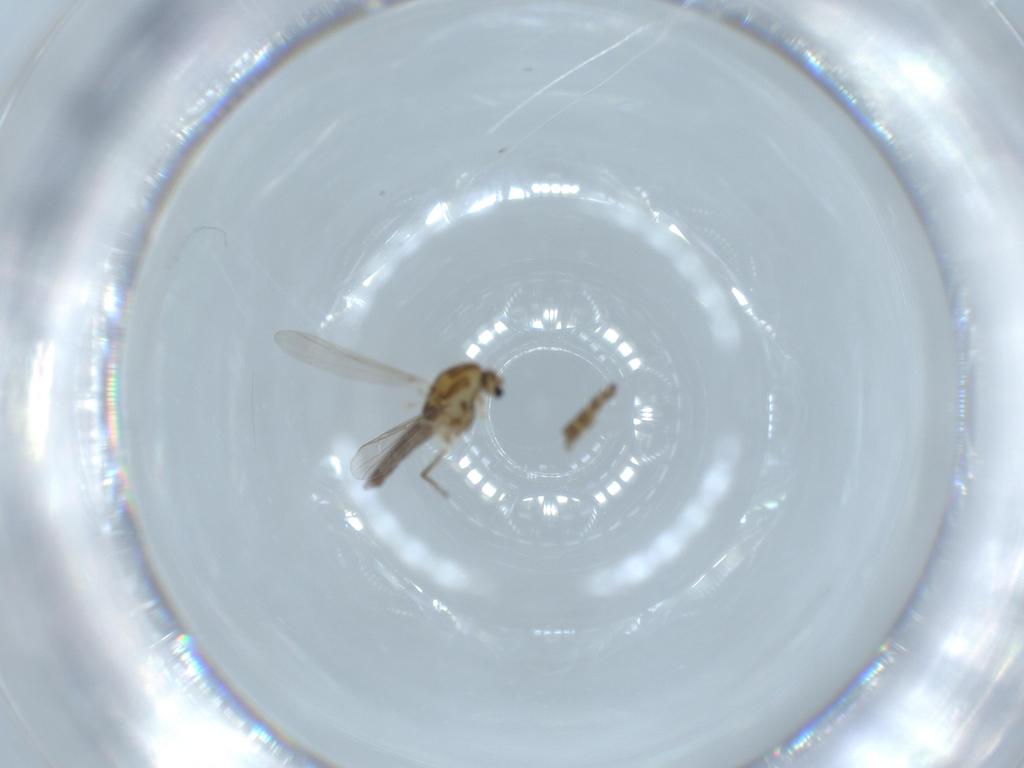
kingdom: Animalia
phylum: Arthropoda
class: Insecta
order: Diptera
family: Chironomidae
